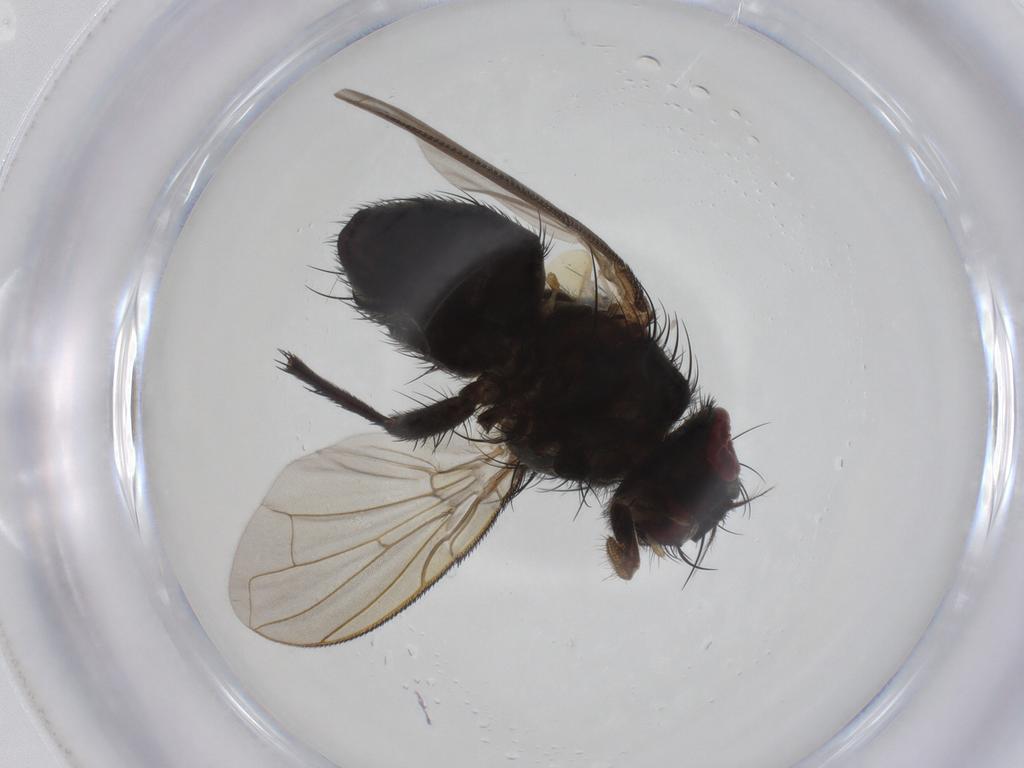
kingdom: Animalia
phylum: Arthropoda
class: Insecta
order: Diptera
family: Calliphoridae
